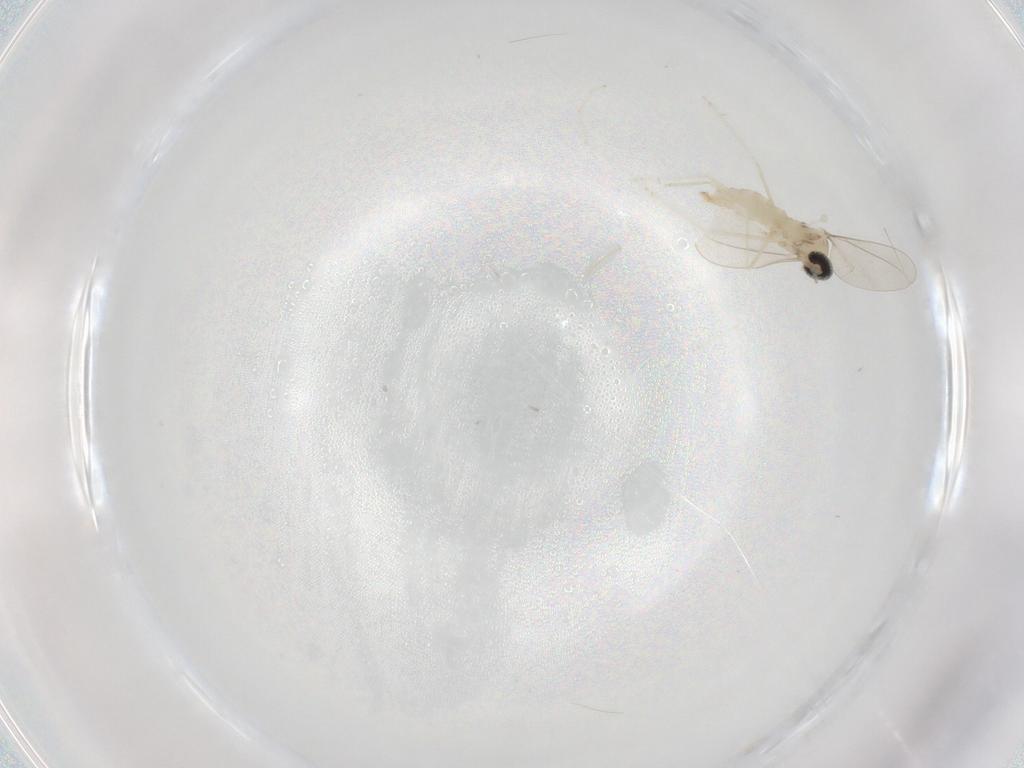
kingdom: Animalia
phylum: Arthropoda
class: Insecta
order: Diptera
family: Cecidomyiidae
